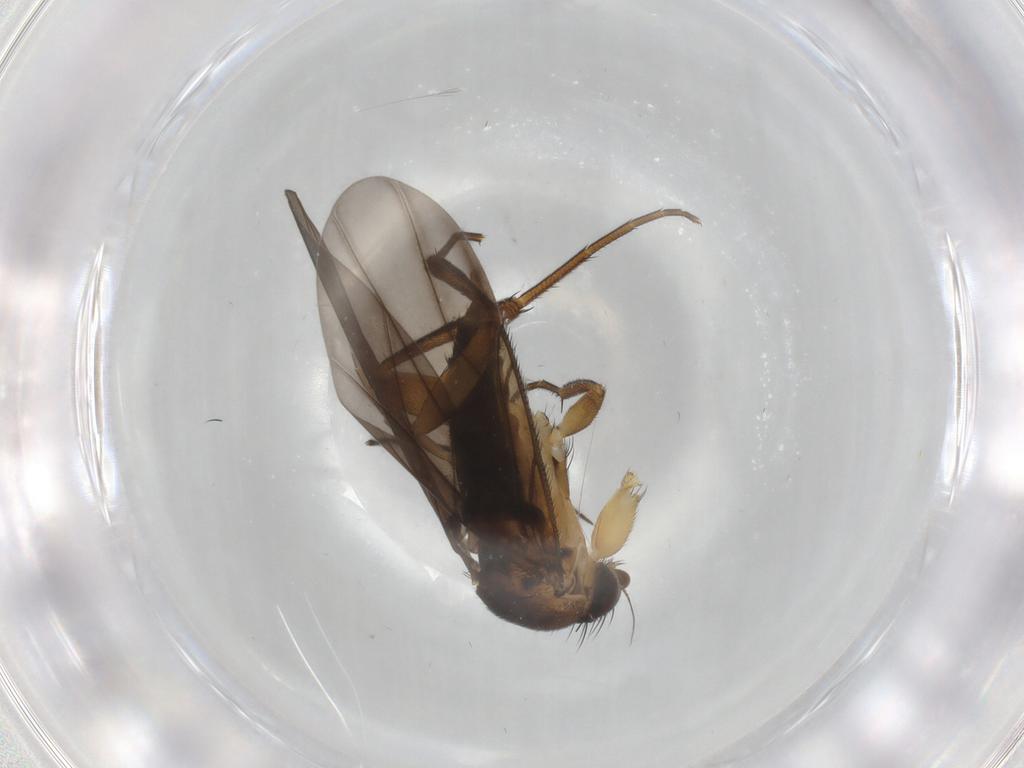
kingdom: Animalia
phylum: Arthropoda
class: Insecta
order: Diptera
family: Phoridae
